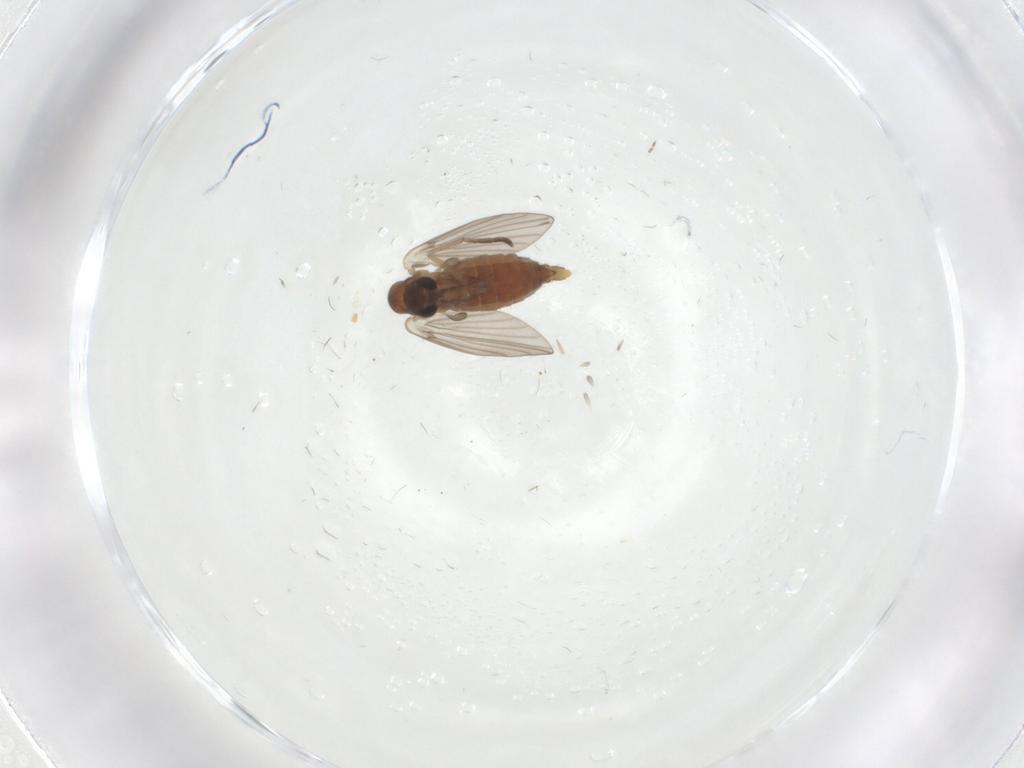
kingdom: Animalia
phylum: Arthropoda
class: Insecta
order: Diptera
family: Ceratopogonidae
